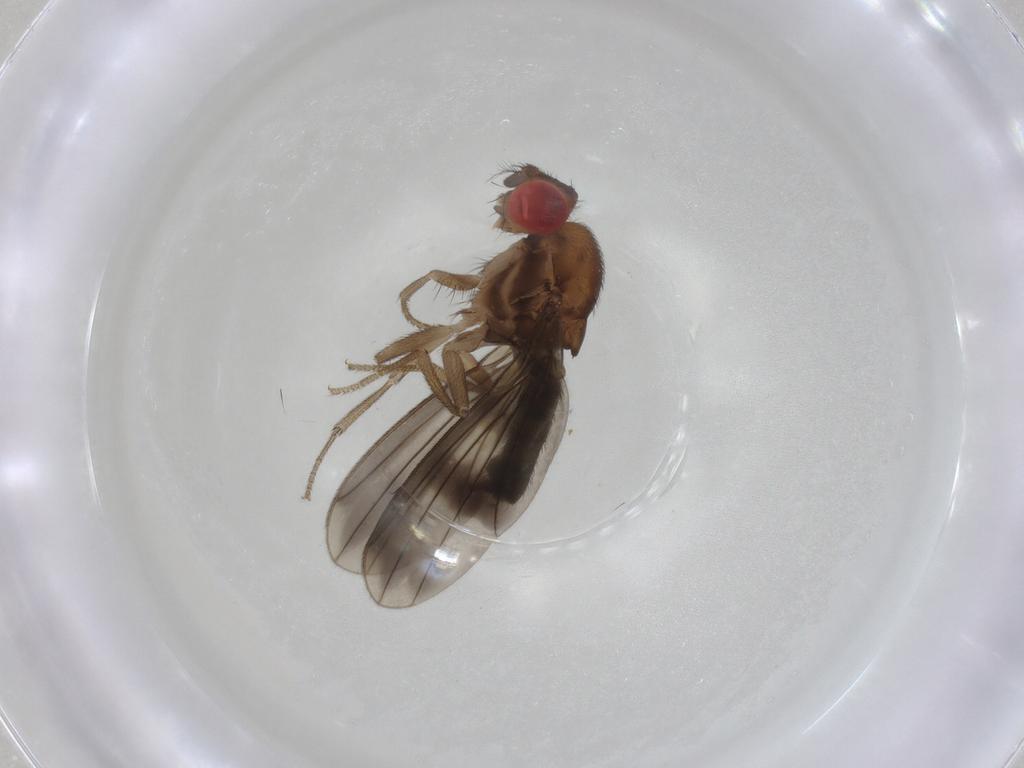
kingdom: Animalia
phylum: Arthropoda
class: Insecta
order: Diptera
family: Drosophilidae
